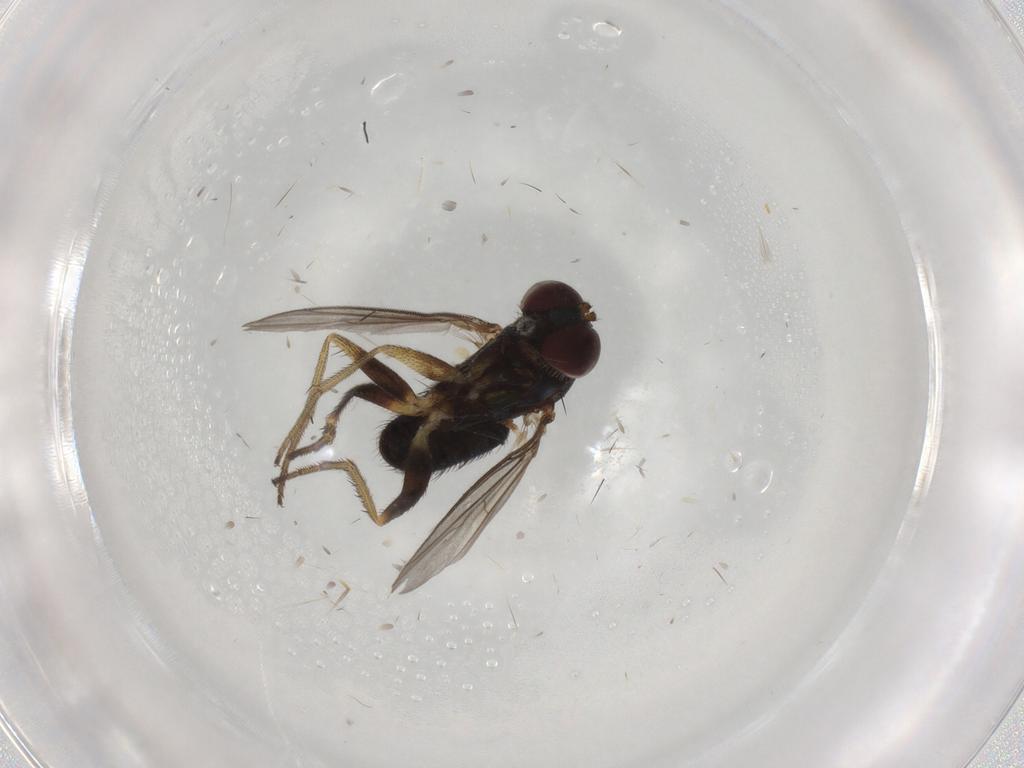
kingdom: Animalia
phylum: Arthropoda
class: Insecta
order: Diptera
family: Dolichopodidae
